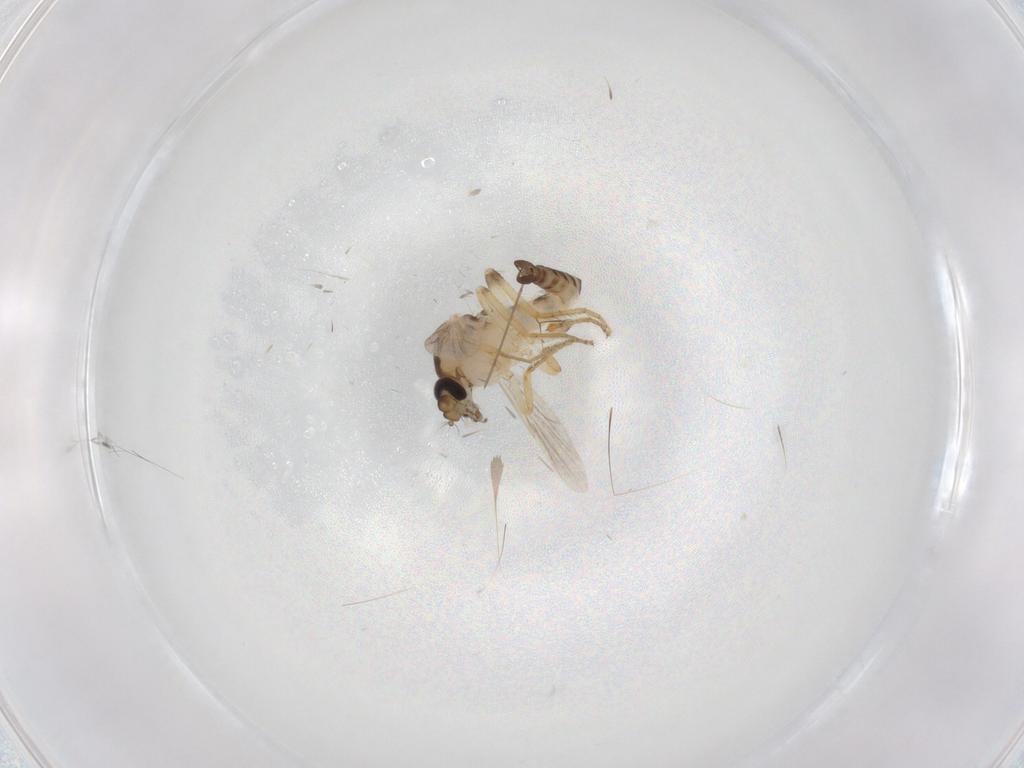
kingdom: Animalia
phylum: Arthropoda
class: Insecta
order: Diptera
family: Ceratopogonidae
